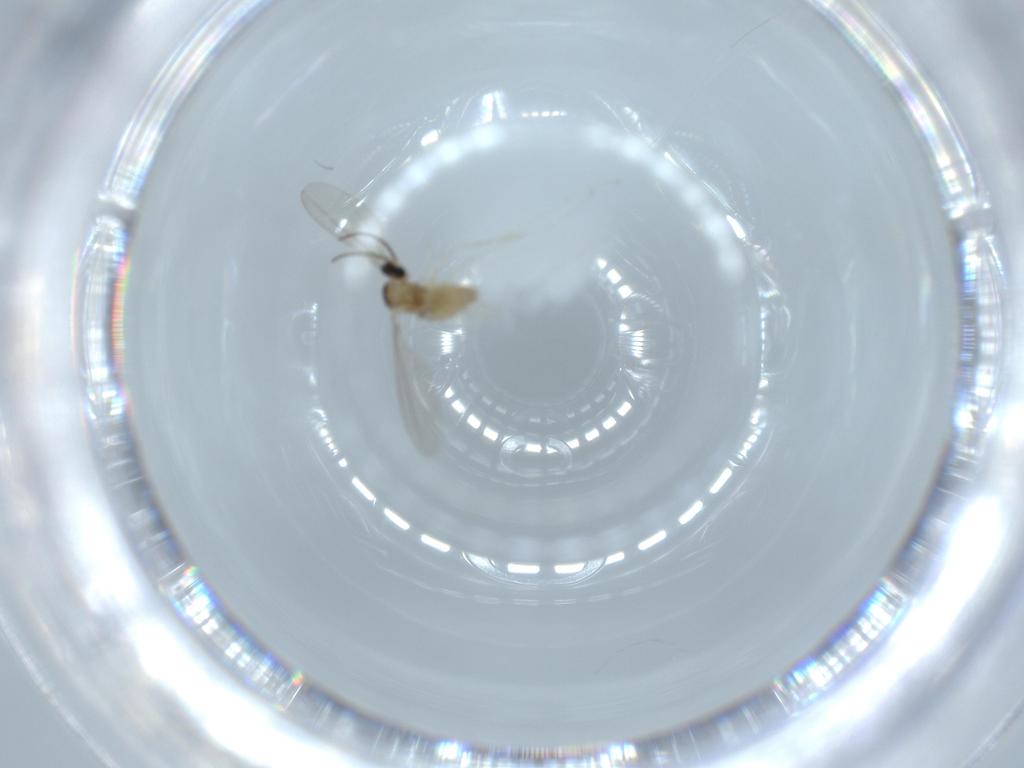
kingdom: Animalia
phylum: Arthropoda
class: Insecta
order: Diptera
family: Cecidomyiidae
